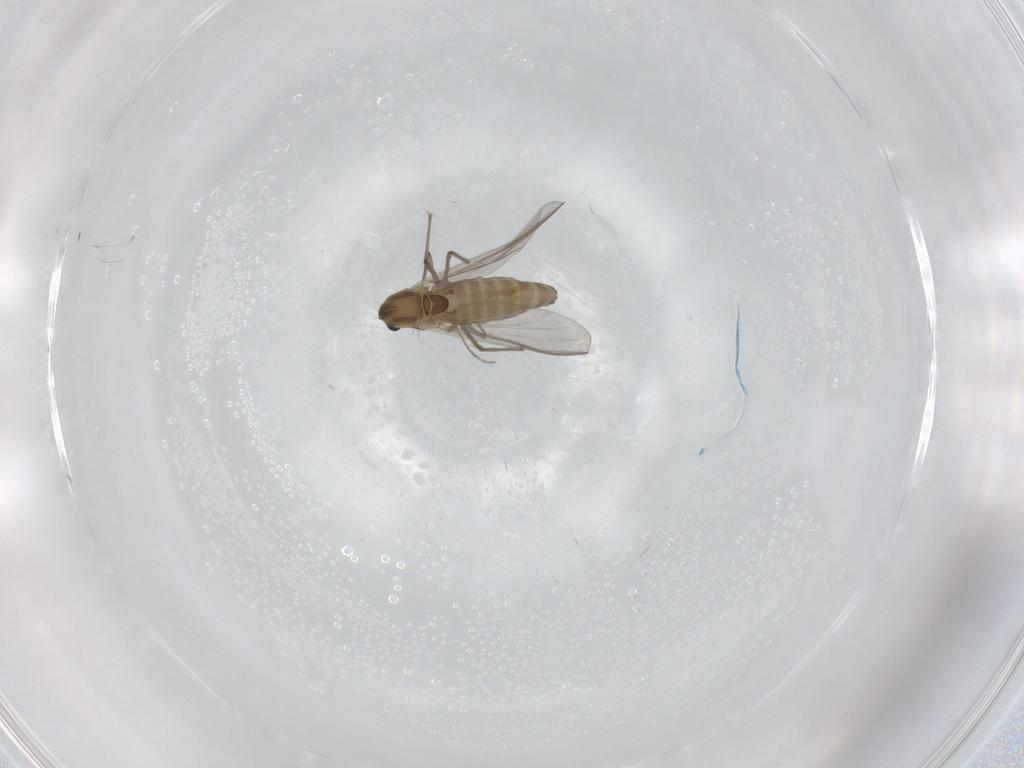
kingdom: Animalia
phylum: Arthropoda
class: Insecta
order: Diptera
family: Chironomidae
